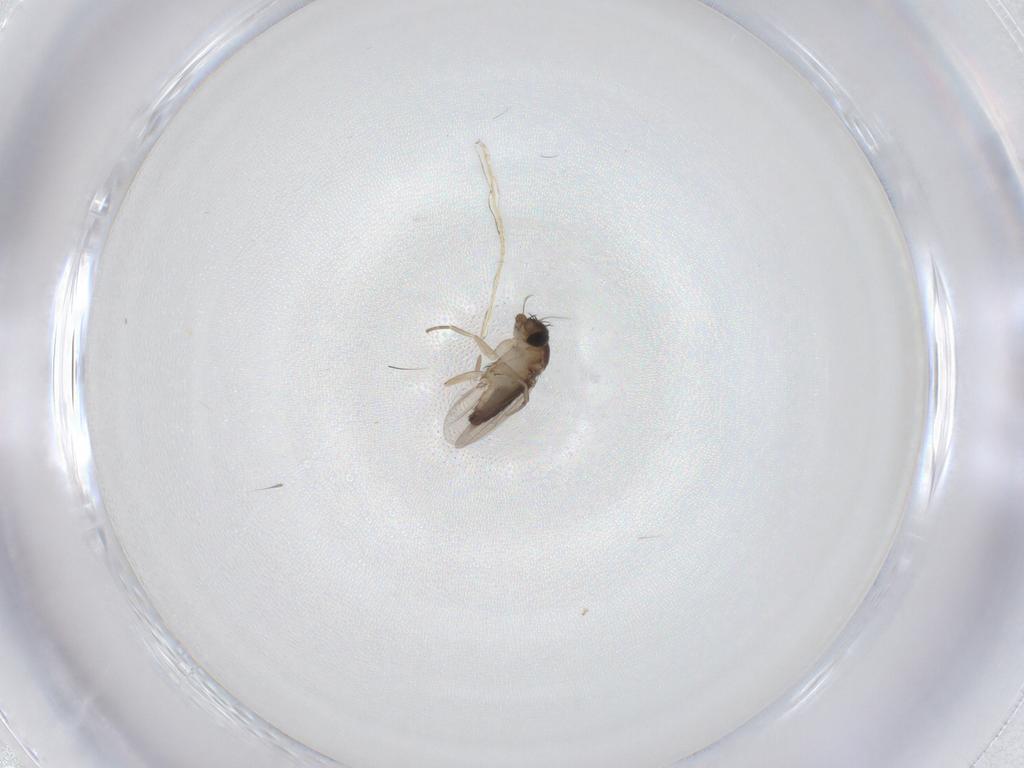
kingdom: Animalia
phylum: Arthropoda
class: Insecta
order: Diptera
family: Phoridae
